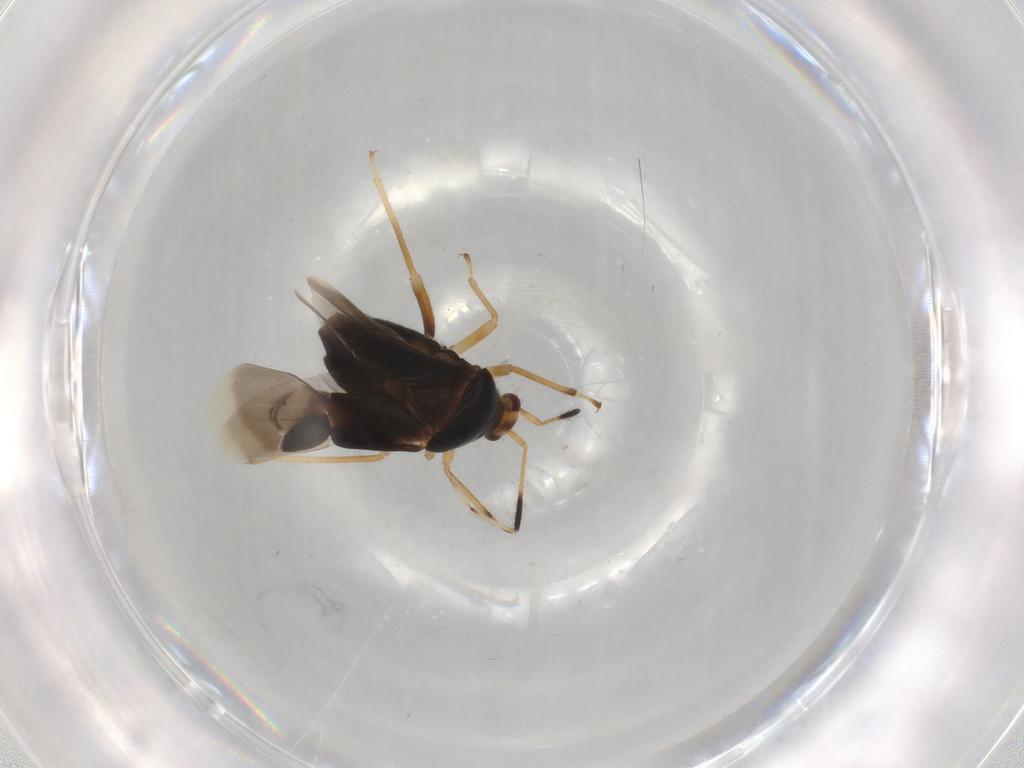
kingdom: Animalia
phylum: Arthropoda
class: Insecta
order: Hemiptera
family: Miridae
